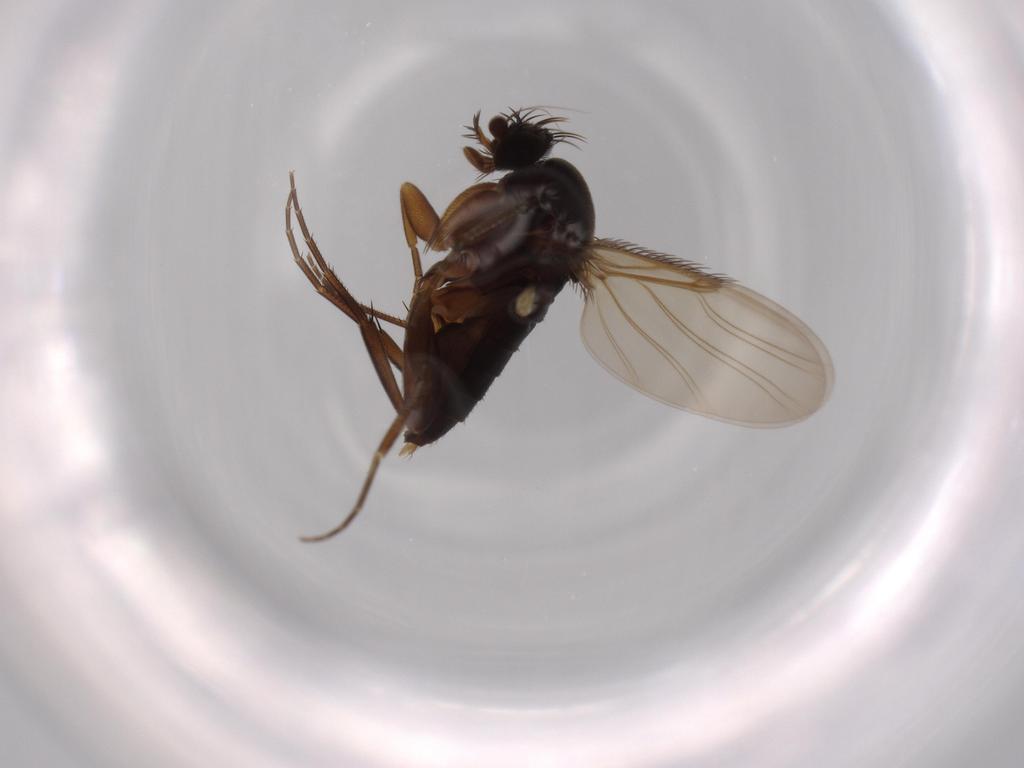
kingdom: Animalia
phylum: Arthropoda
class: Insecta
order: Diptera
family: Phoridae
